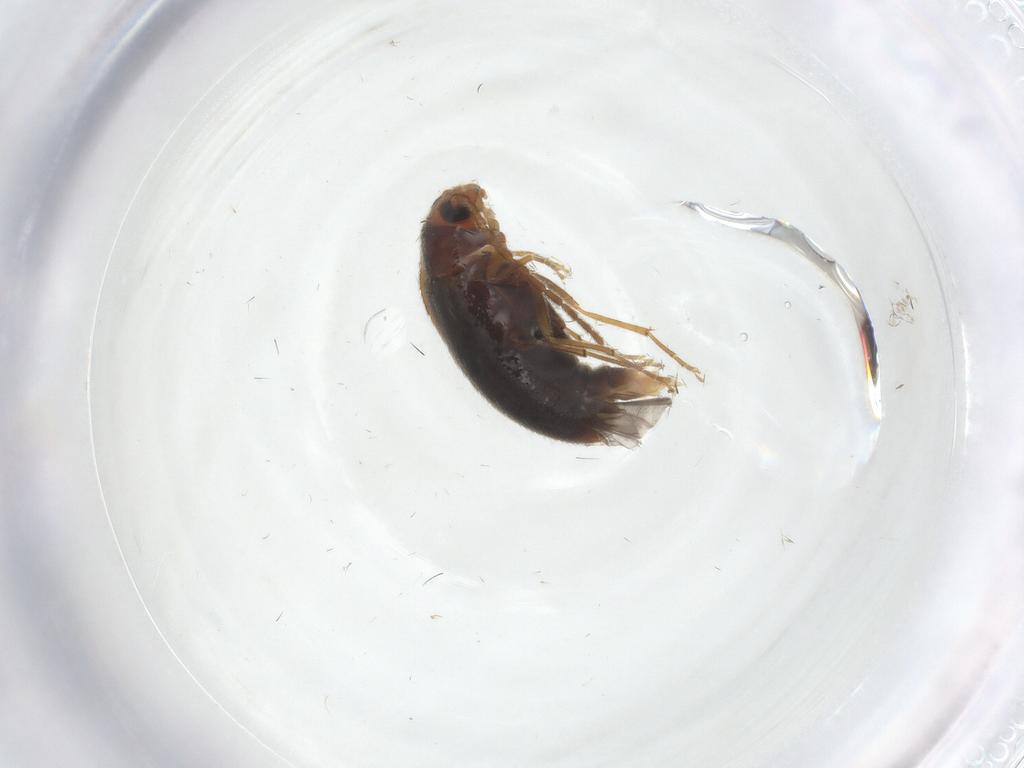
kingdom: Animalia
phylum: Arthropoda
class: Insecta
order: Coleoptera
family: Melandryidae
